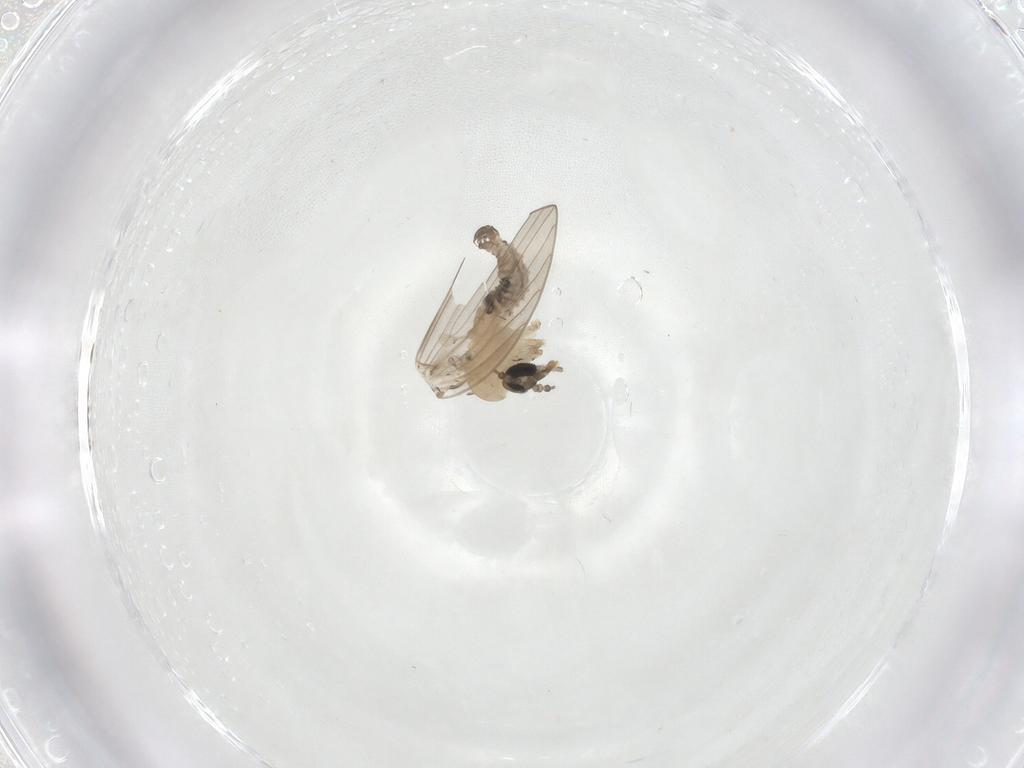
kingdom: Animalia
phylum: Arthropoda
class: Insecta
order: Diptera
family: Psychodidae
